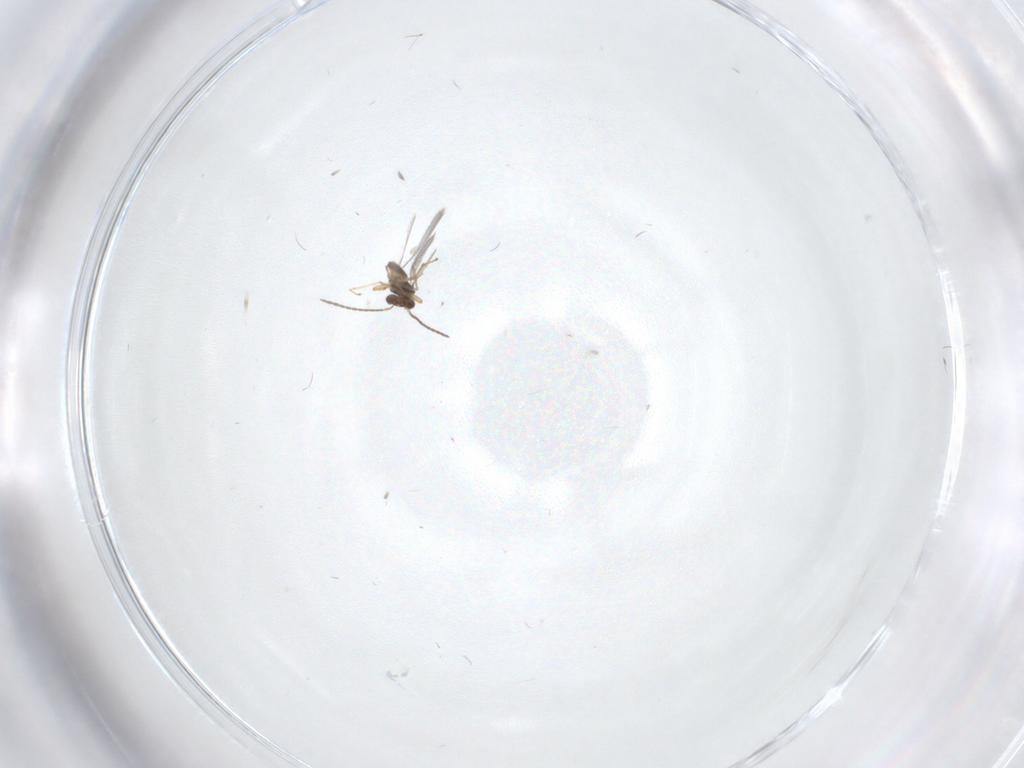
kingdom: Animalia
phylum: Arthropoda
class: Insecta
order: Hymenoptera
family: Mymaridae
